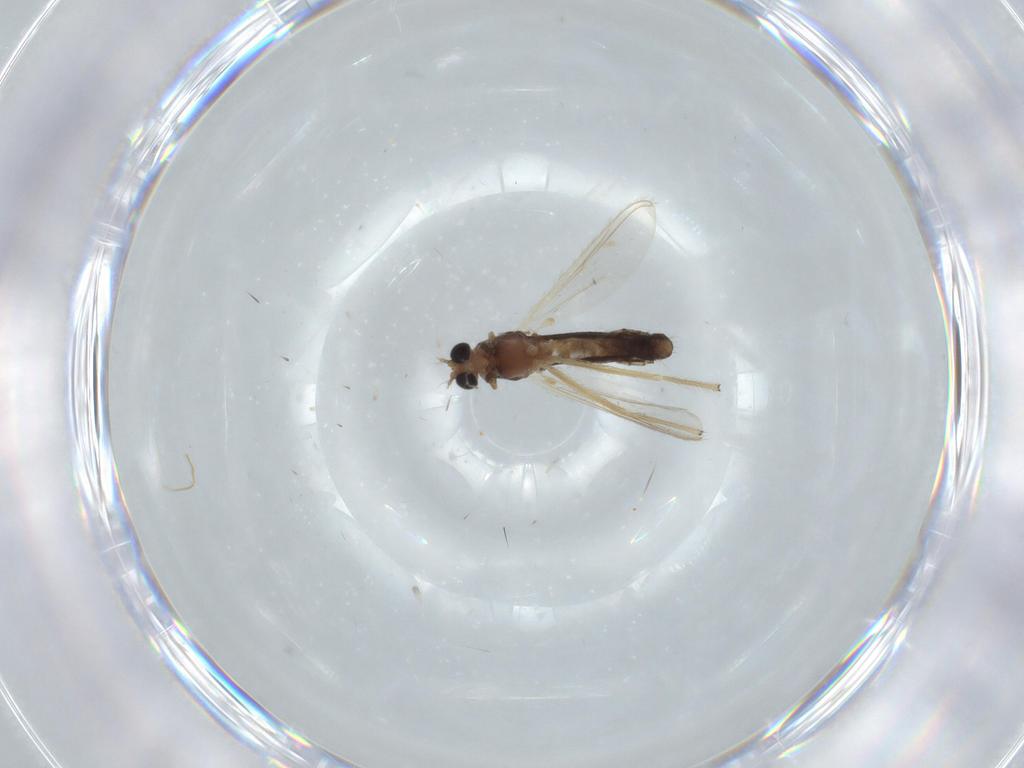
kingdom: Animalia
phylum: Arthropoda
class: Insecta
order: Diptera
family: Chironomidae
